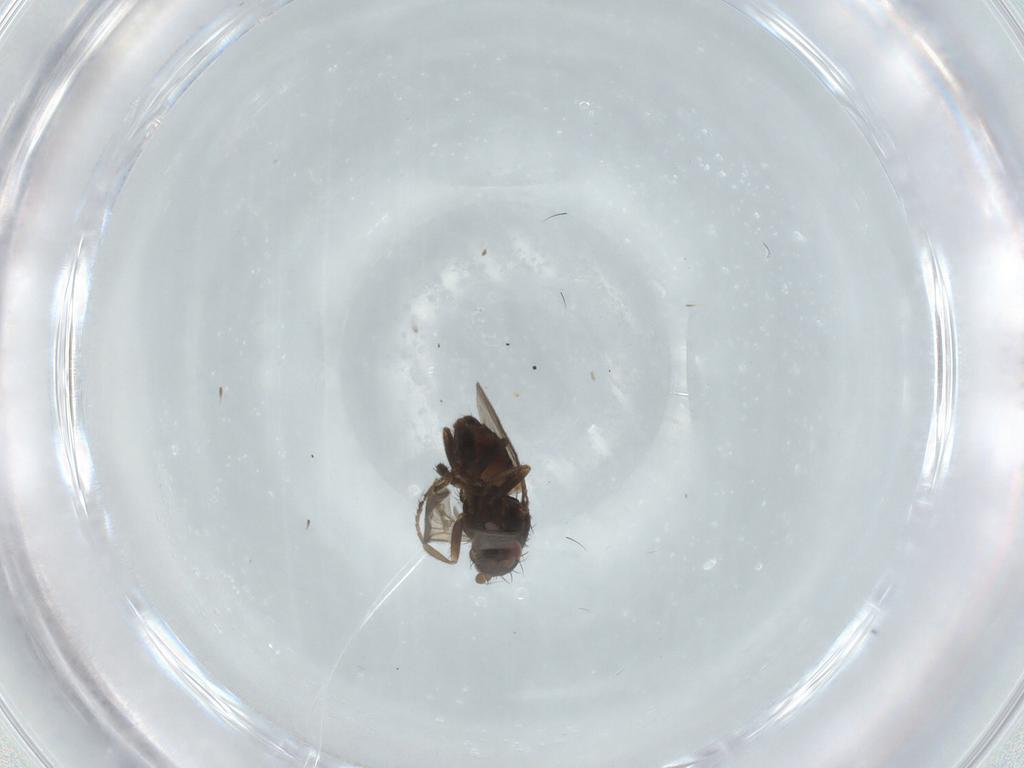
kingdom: Animalia
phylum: Arthropoda
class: Insecta
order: Diptera
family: Sphaeroceridae
